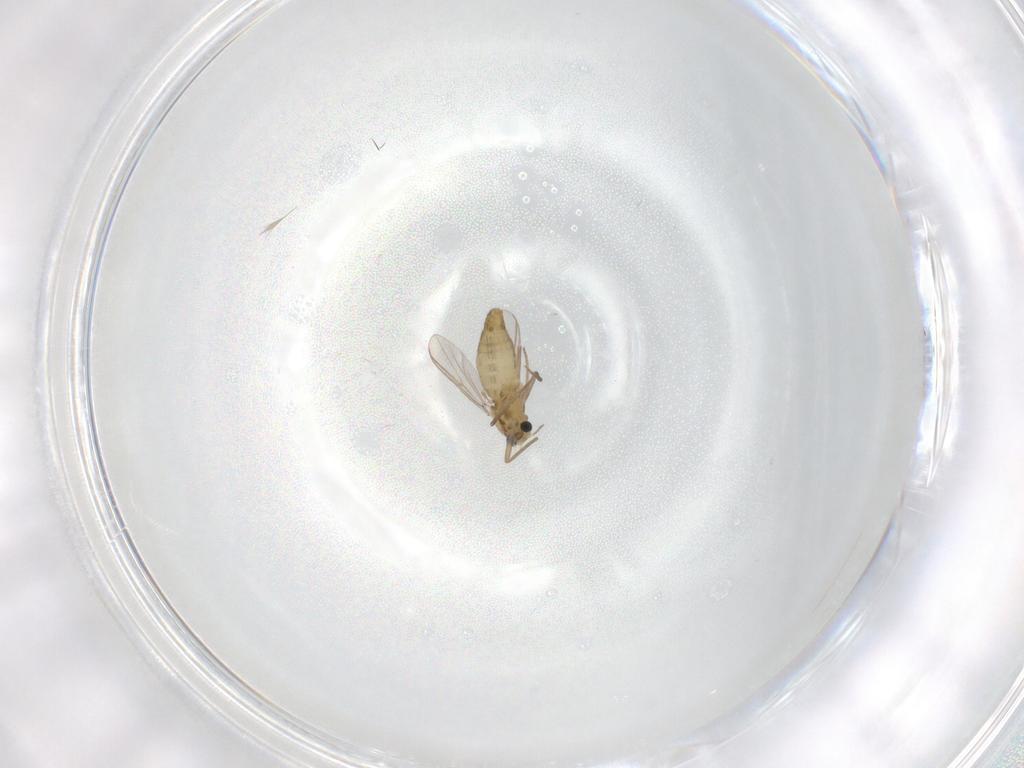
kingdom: Animalia
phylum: Arthropoda
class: Insecta
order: Diptera
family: Chironomidae
